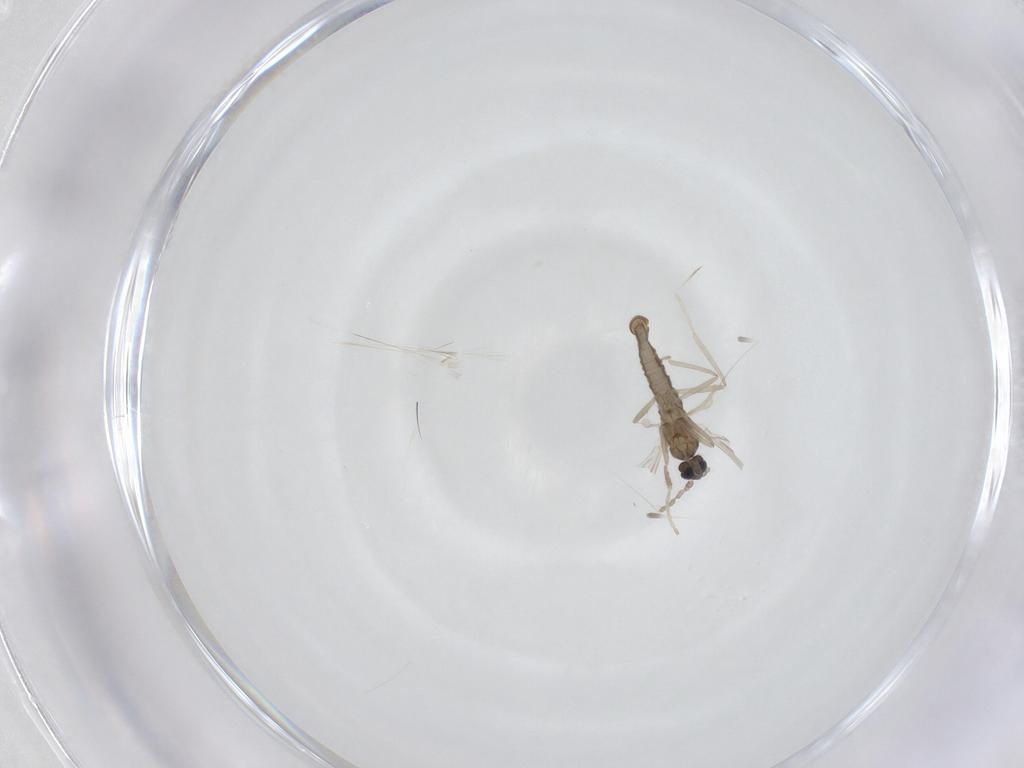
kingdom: Animalia
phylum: Arthropoda
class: Insecta
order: Diptera
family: Cecidomyiidae
